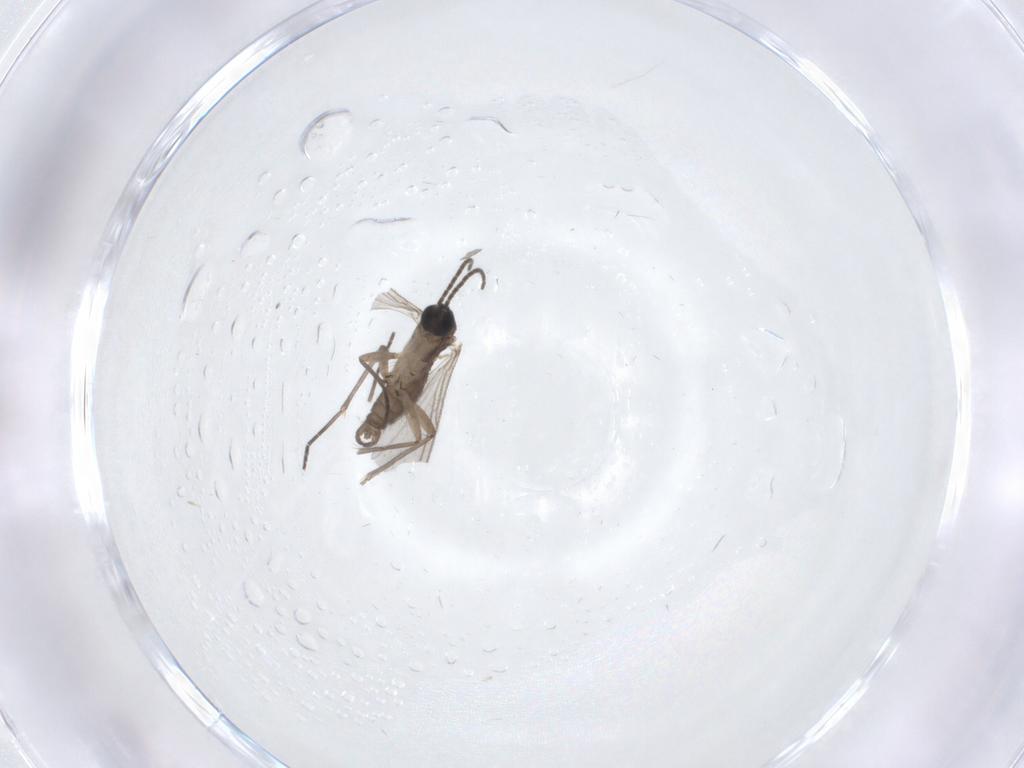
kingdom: Animalia
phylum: Arthropoda
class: Insecta
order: Diptera
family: Sciaridae
